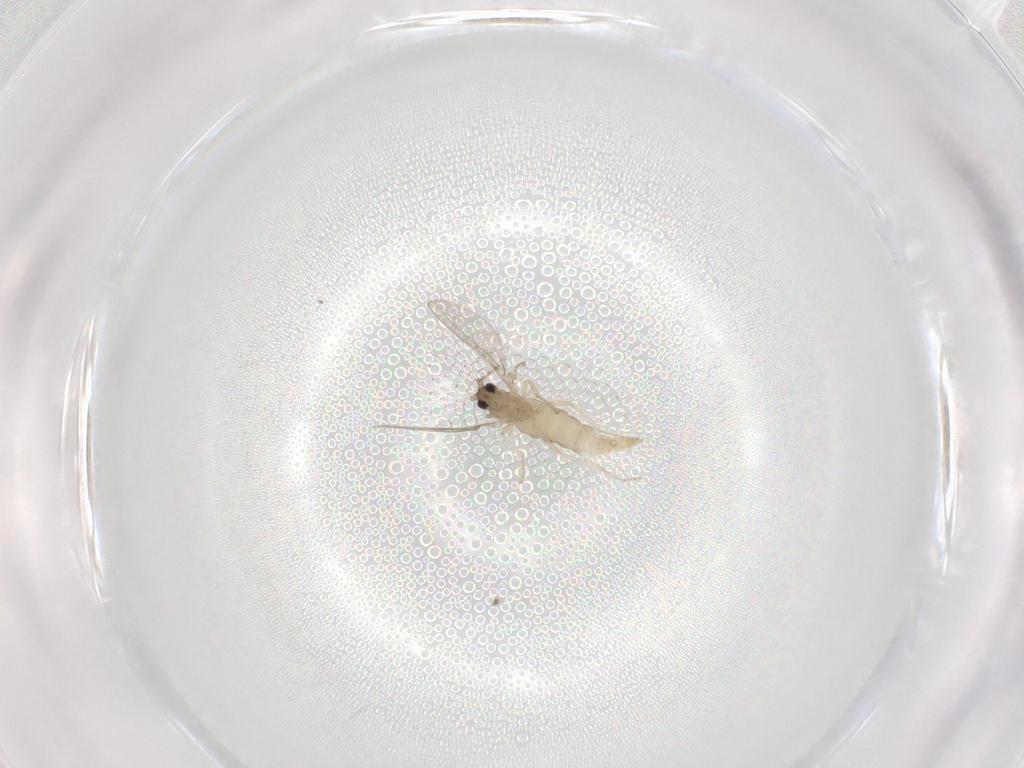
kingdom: Animalia
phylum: Arthropoda
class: Insecta
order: Diptera
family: Cecidomyiidae
